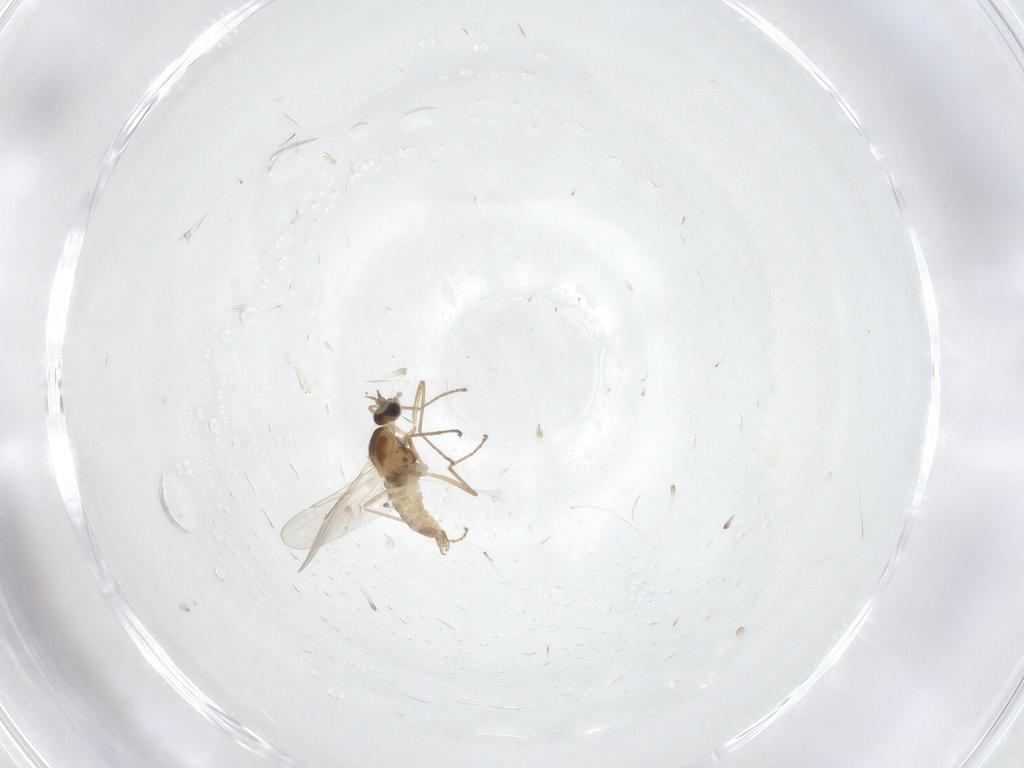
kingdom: Animalia
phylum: Arthropoda
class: Insecta
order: Diptera
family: Cecidomyiidae
